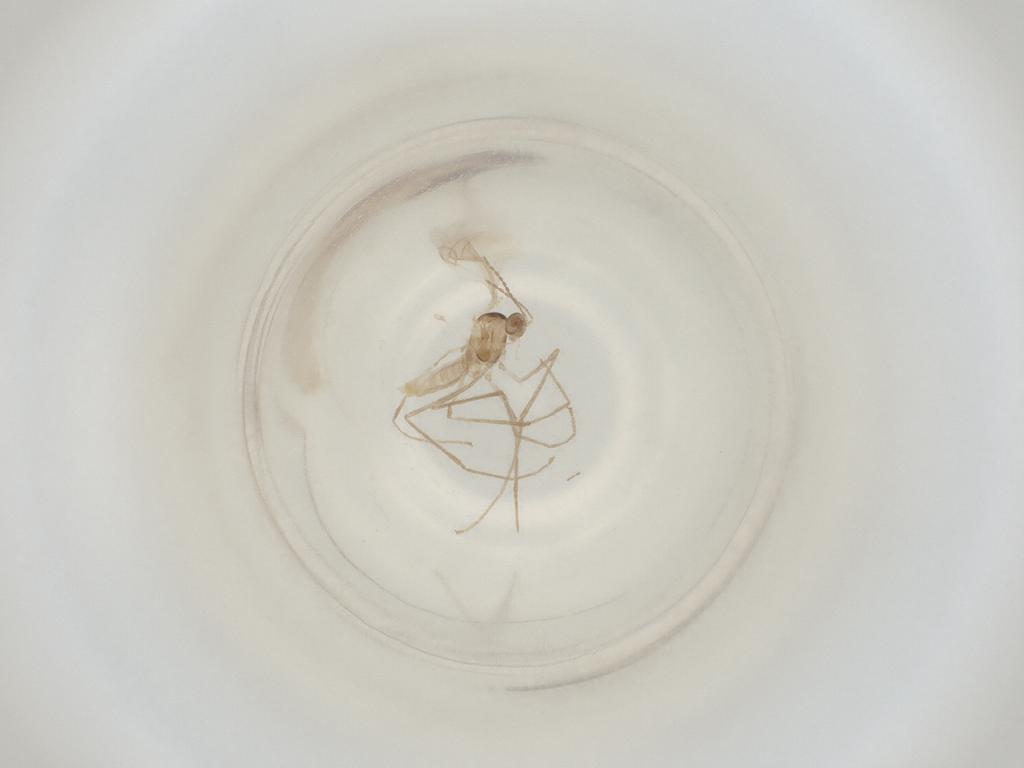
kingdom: Animalia
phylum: Arthropoda
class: Insecta
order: Diptera
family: Cecidomyiidae
